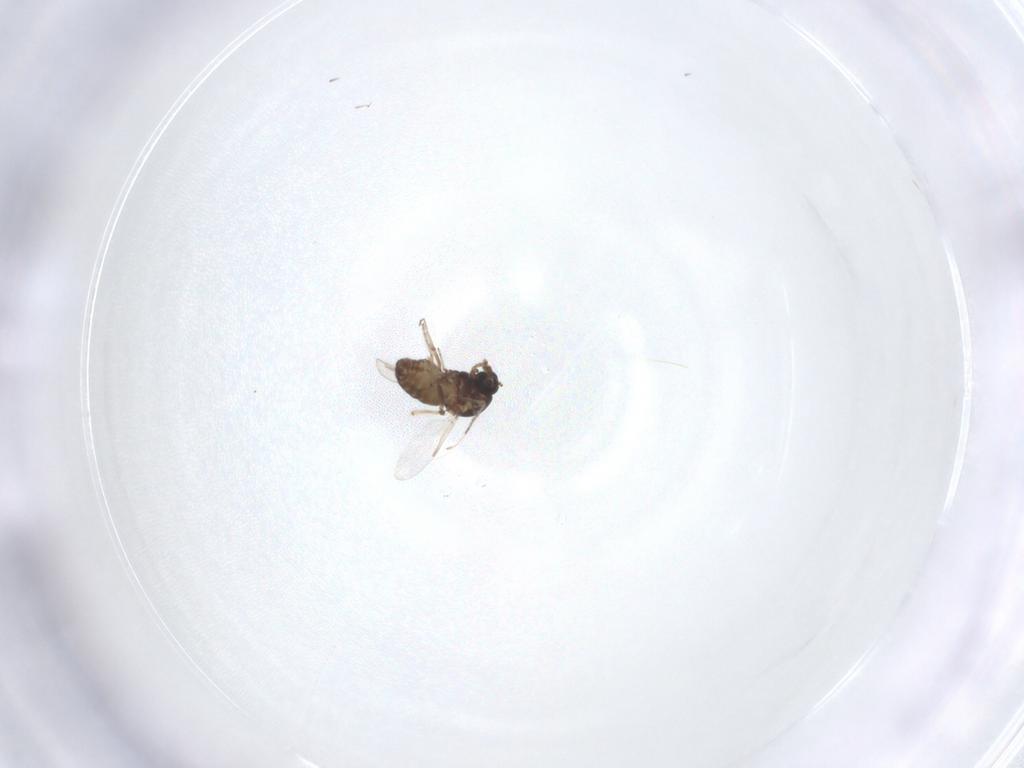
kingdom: Animalia
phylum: Arthropoda
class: Insecta
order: Diptera
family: Ceratopogonidae
